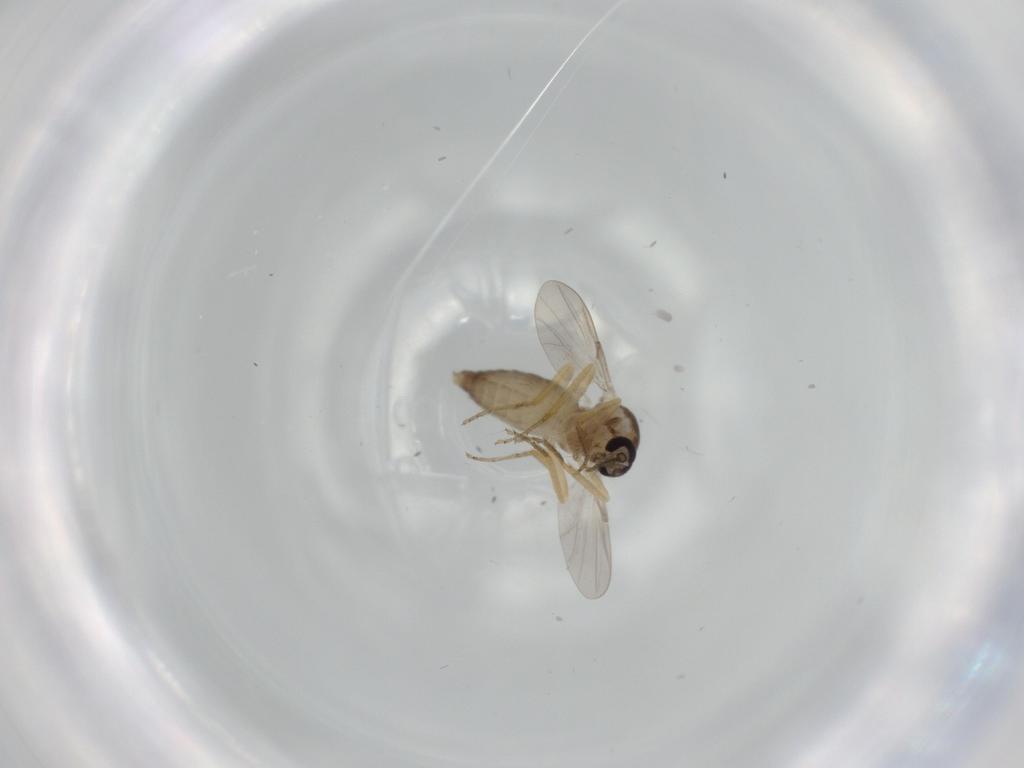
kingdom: Animalia
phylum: Arthropoda
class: Insecta
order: Diptera
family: Ceratopogonidae
